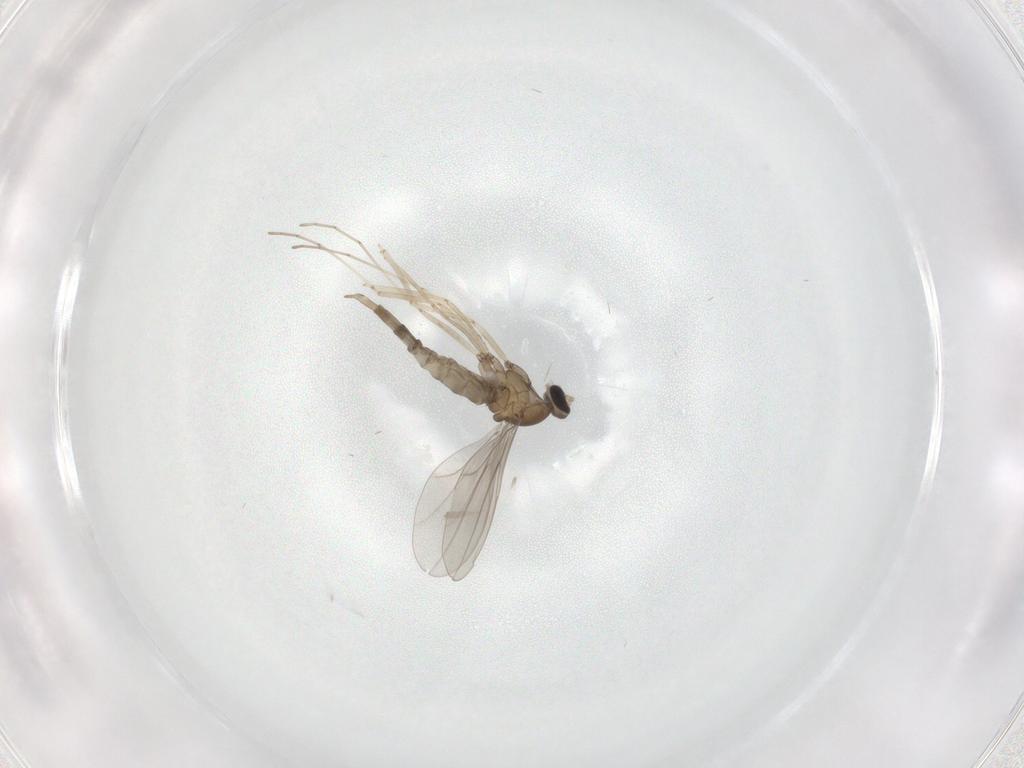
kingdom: Animalia
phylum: Arthropoda
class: Insecta
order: Diptera
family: Cecidomyiidae
